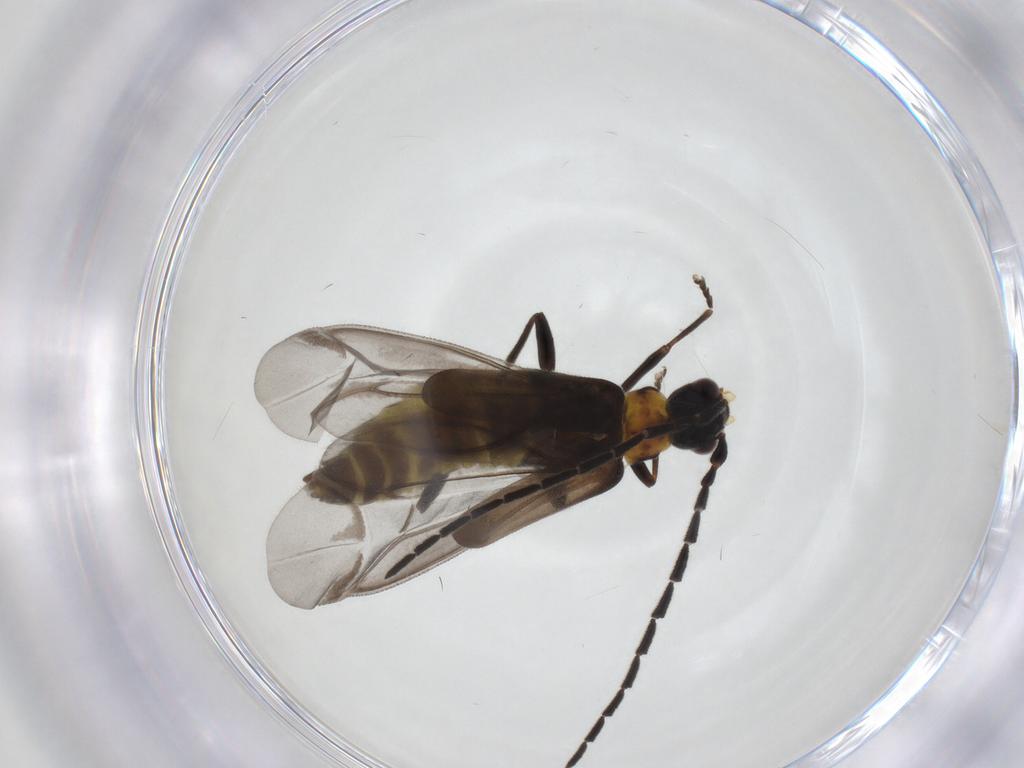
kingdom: Animalia
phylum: Arthropoda
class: Insecta
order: Coleoptera
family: Cantharidae
